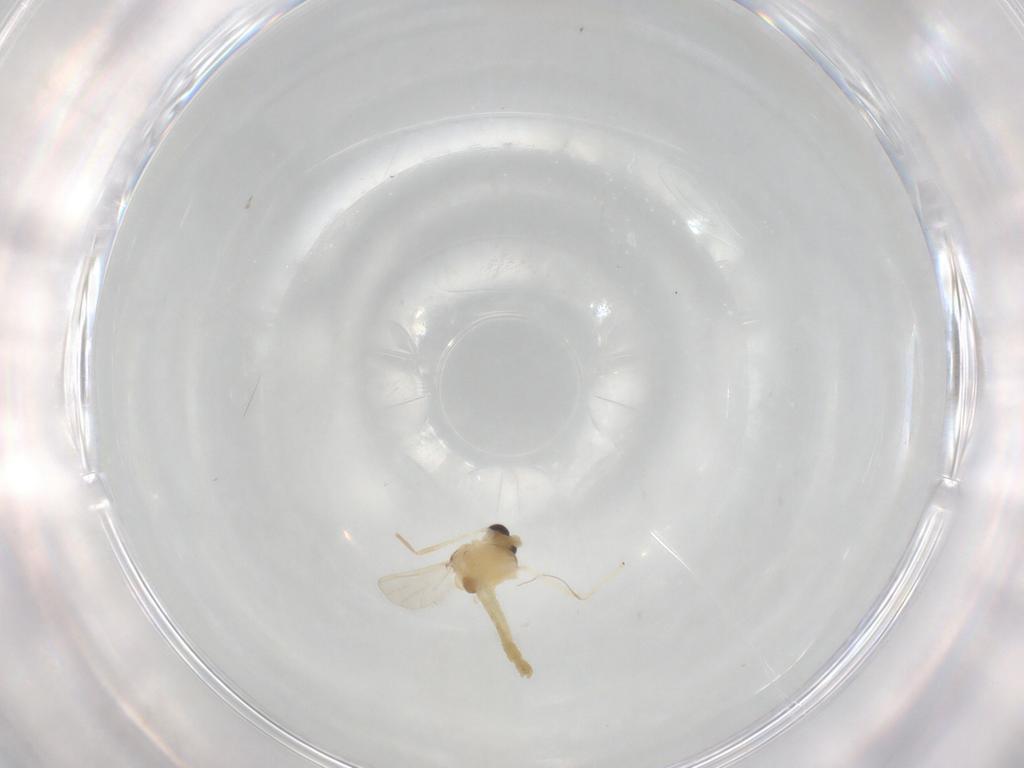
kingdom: Animalia
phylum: Arthropoda
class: Insecta
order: Diptera
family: Chironomidae
